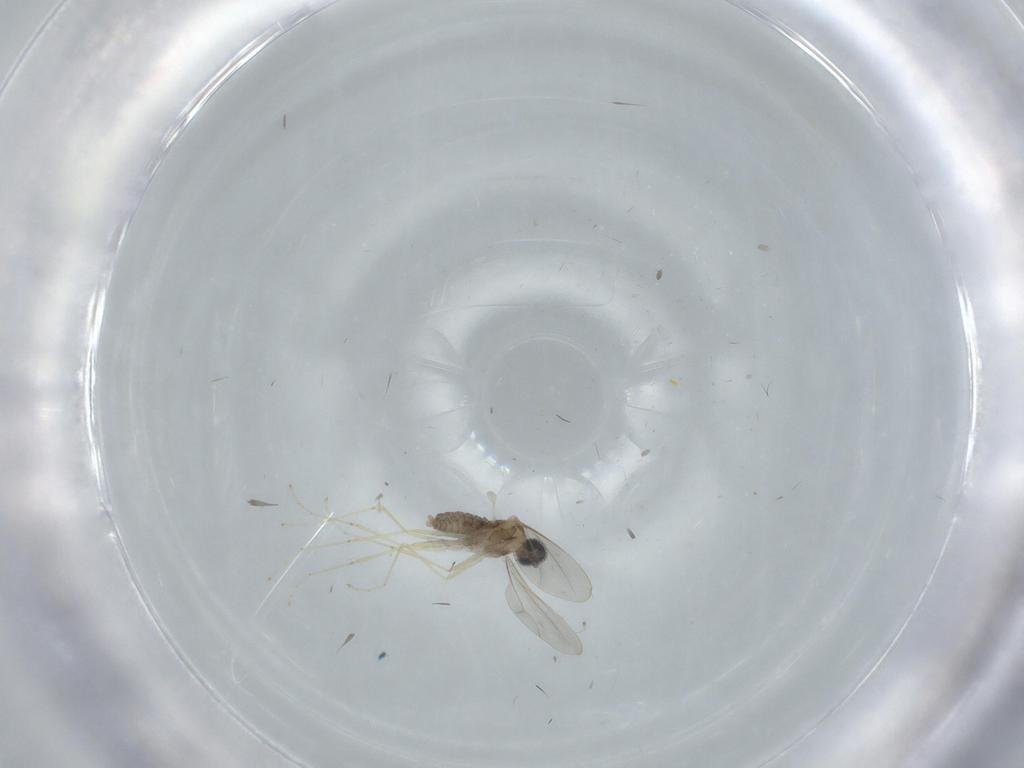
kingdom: Animalia
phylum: Arthropoda
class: Insecta
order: Diptera
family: Cecidomyiidae
